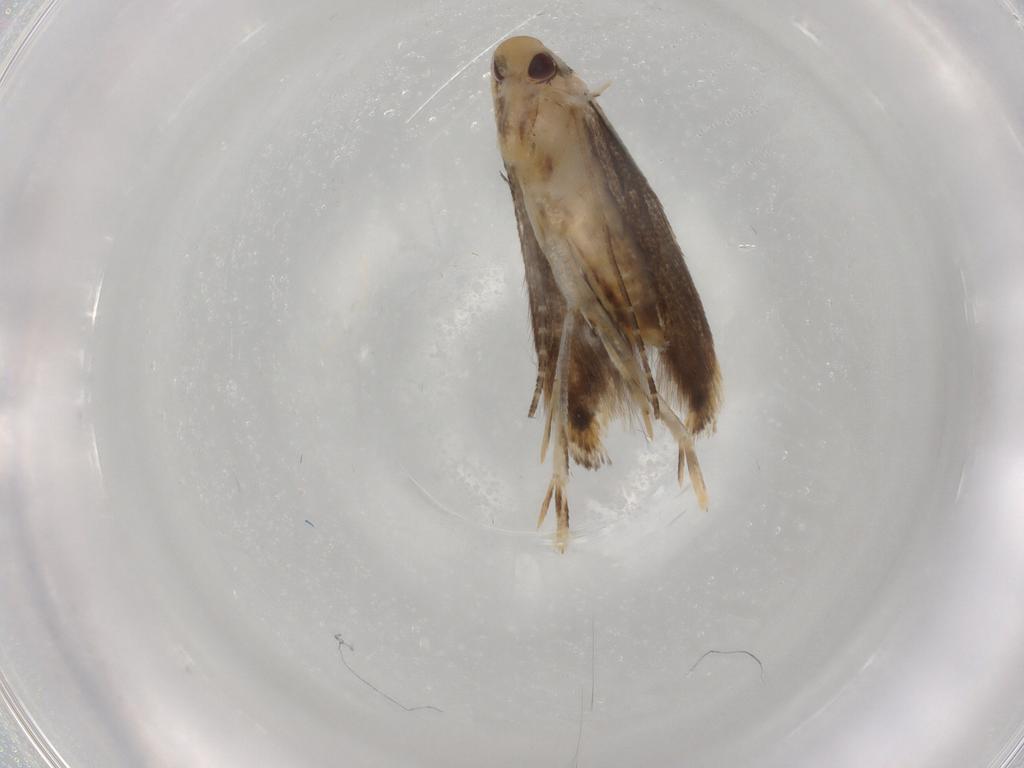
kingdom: Animalia
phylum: Arthropoda
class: Insecta
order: Lepidoptera
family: Momphidae
